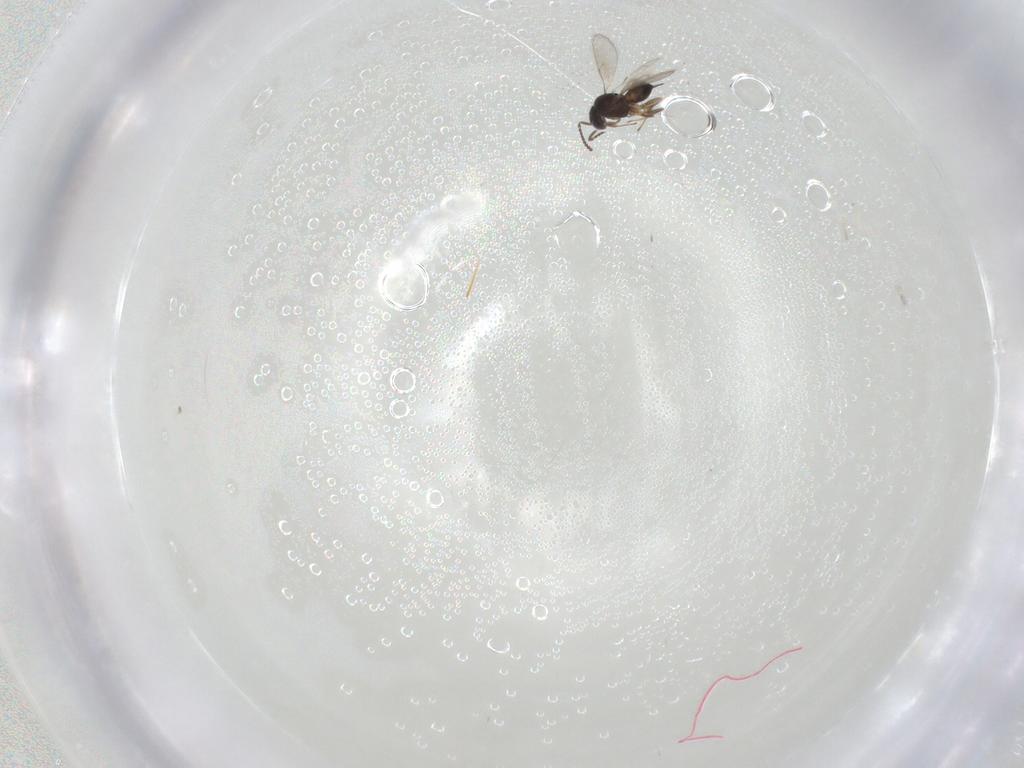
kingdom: Animalia
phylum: Arthropoda
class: Insecta
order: Hymenoptera
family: Scelionidae
